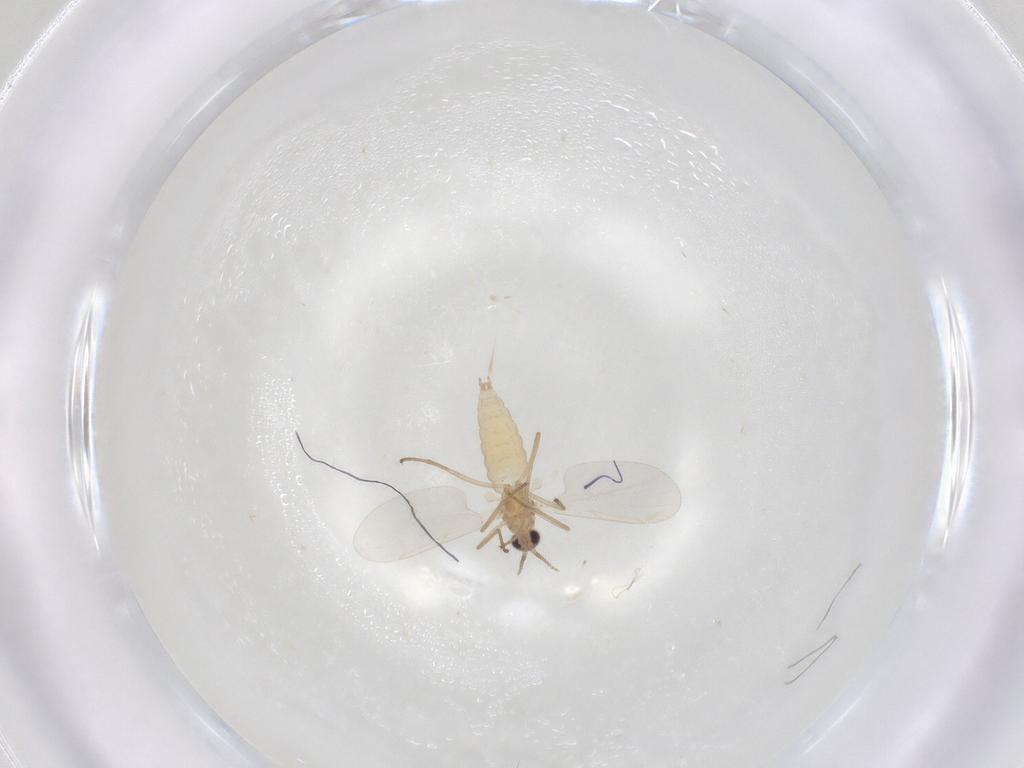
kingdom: Animalia
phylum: Arthropoda
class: Insecta
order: Diptera
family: Cecidomyiidae
